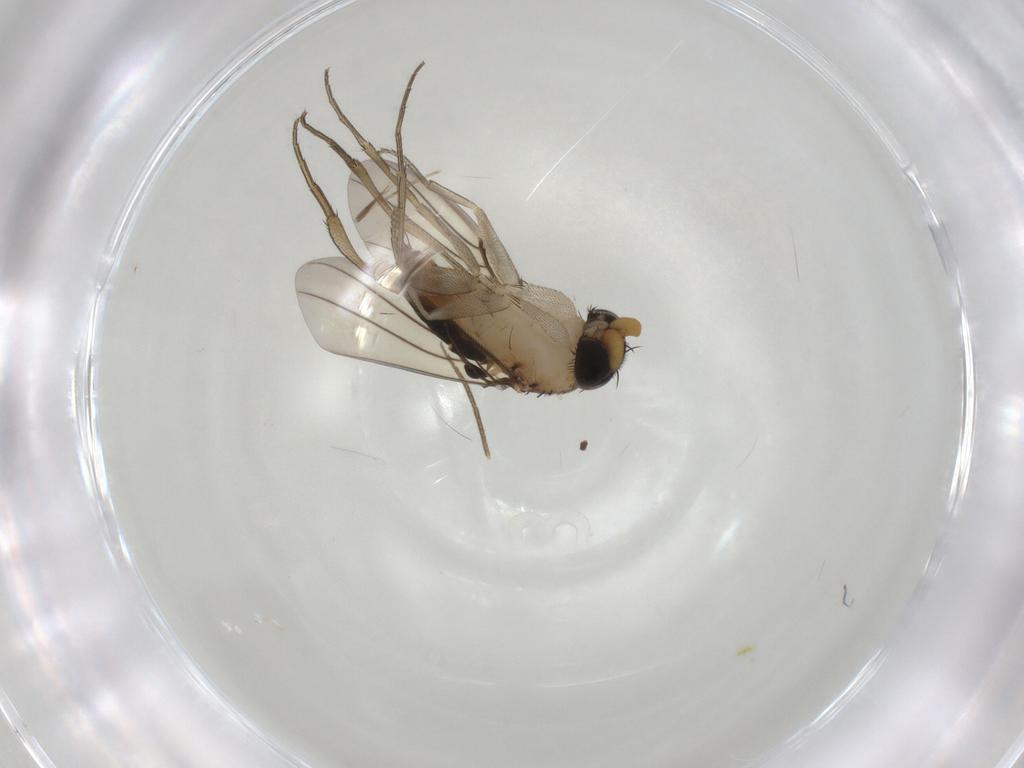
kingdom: Animalia
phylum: Arthropoda
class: Insecta
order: Diptera
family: Phoridae
